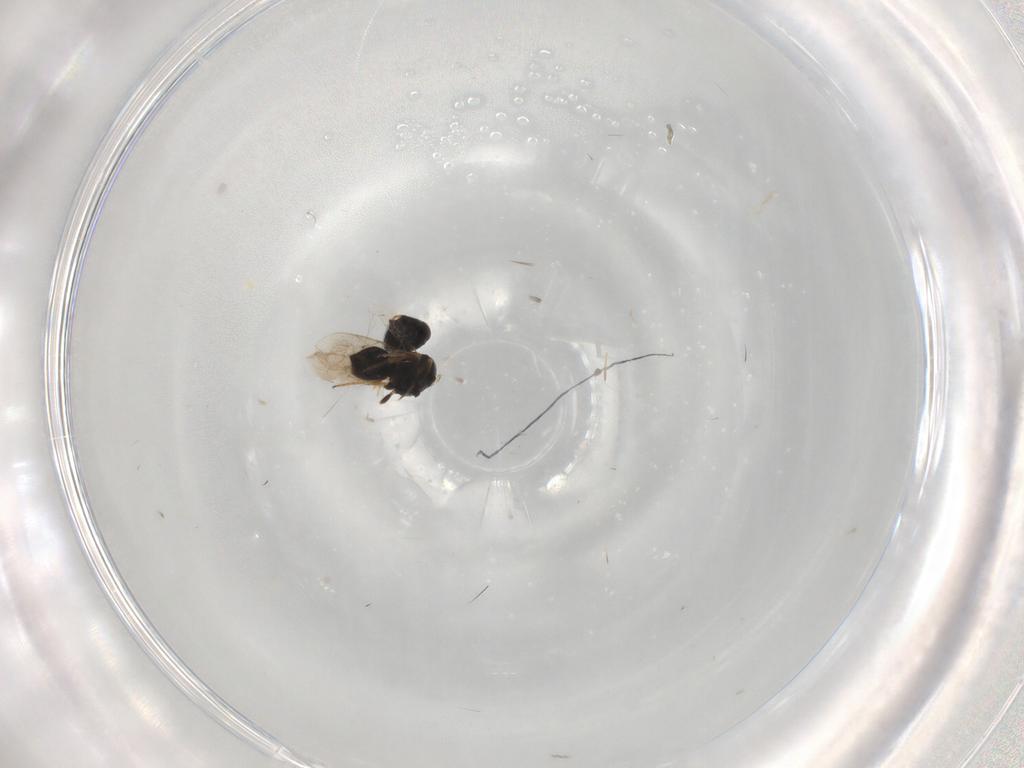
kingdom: Animalia
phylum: Arthropoda
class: Insecta
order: Hymenoptera
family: Scelionidae
